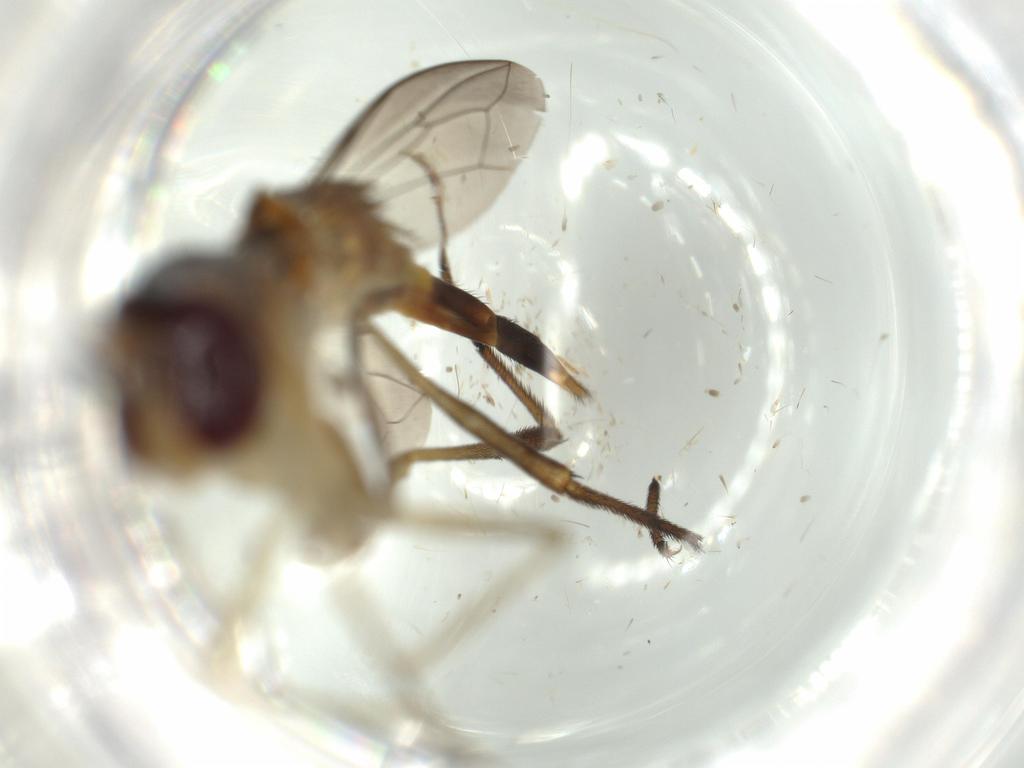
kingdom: Animalia
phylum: Arthropoda
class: Insecta
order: Diptera
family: Conopidae
